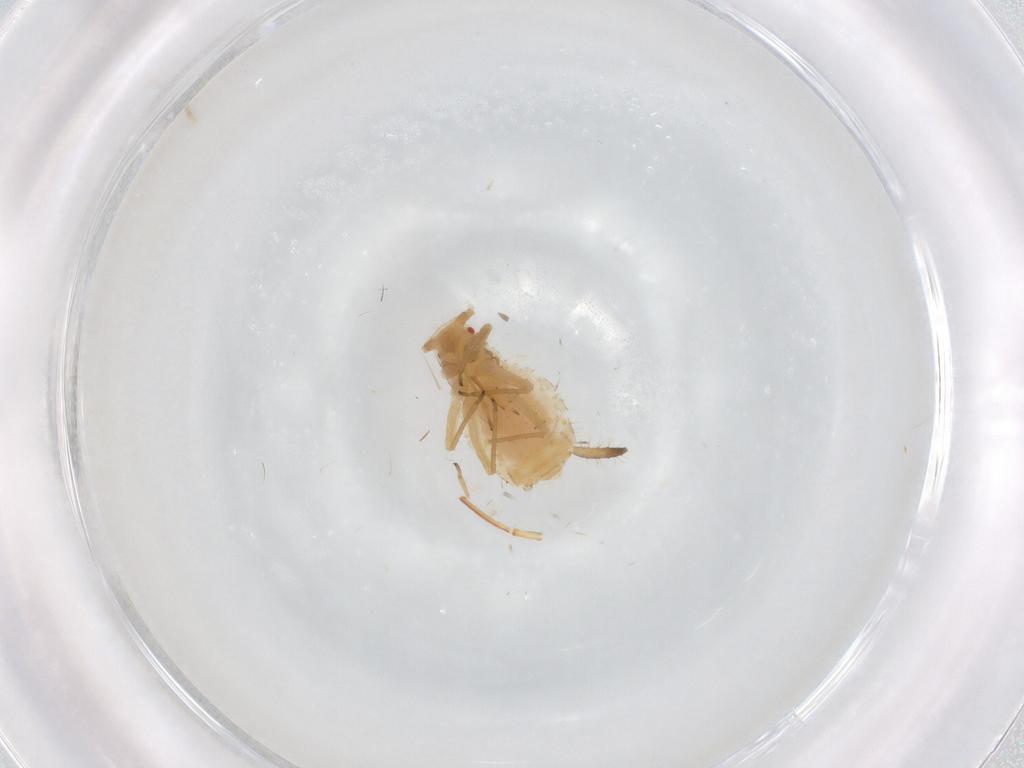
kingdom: Animalia
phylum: Arthropoda
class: Insecta
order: Hemiptera
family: Aphididae
